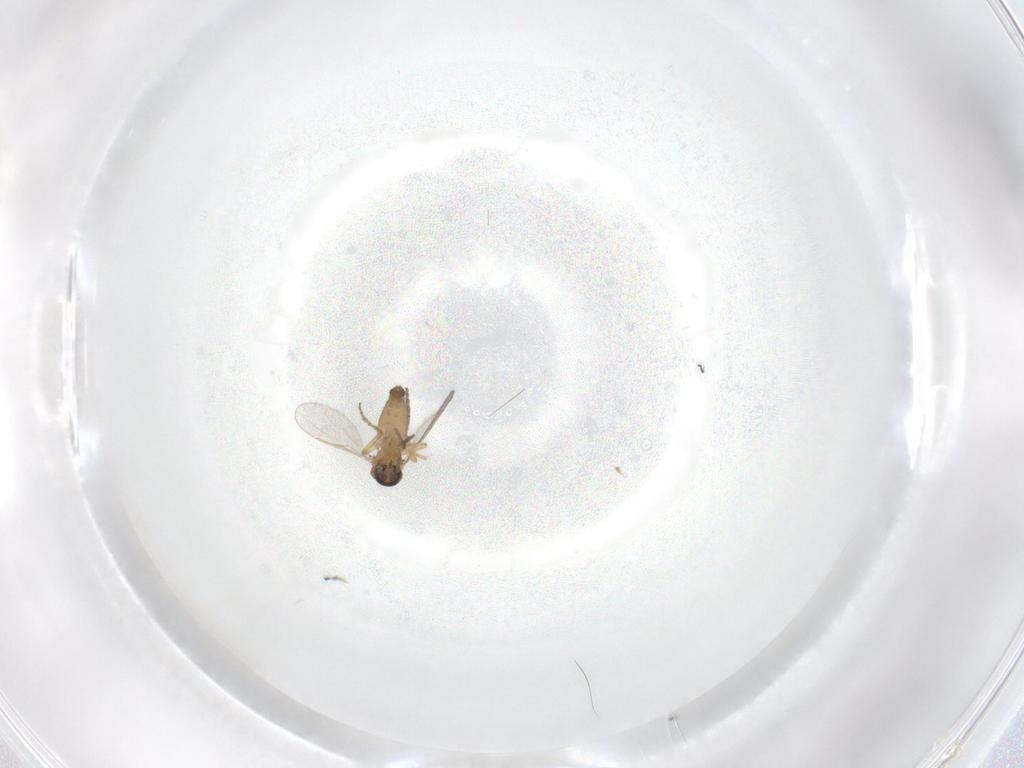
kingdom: Animalia
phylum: Arthropoda
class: Insecta
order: Diptera
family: Ceratopogonidae
